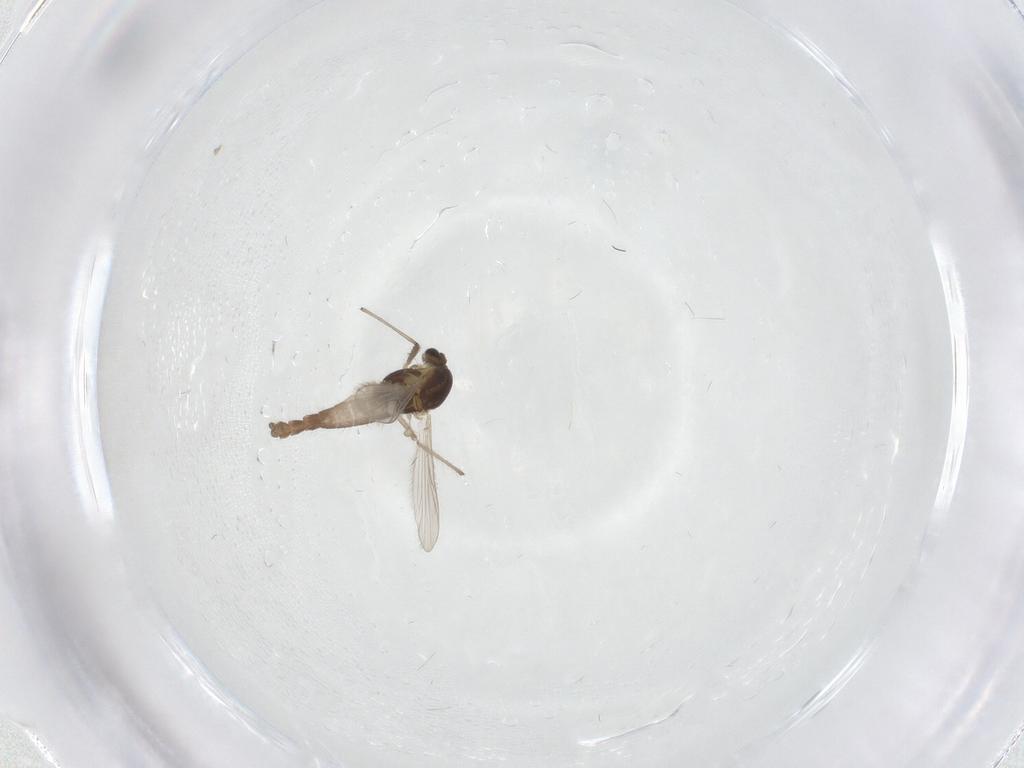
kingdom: Animalia
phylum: Arthropoda
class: Insecta
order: Diptera
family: Chironomidae
